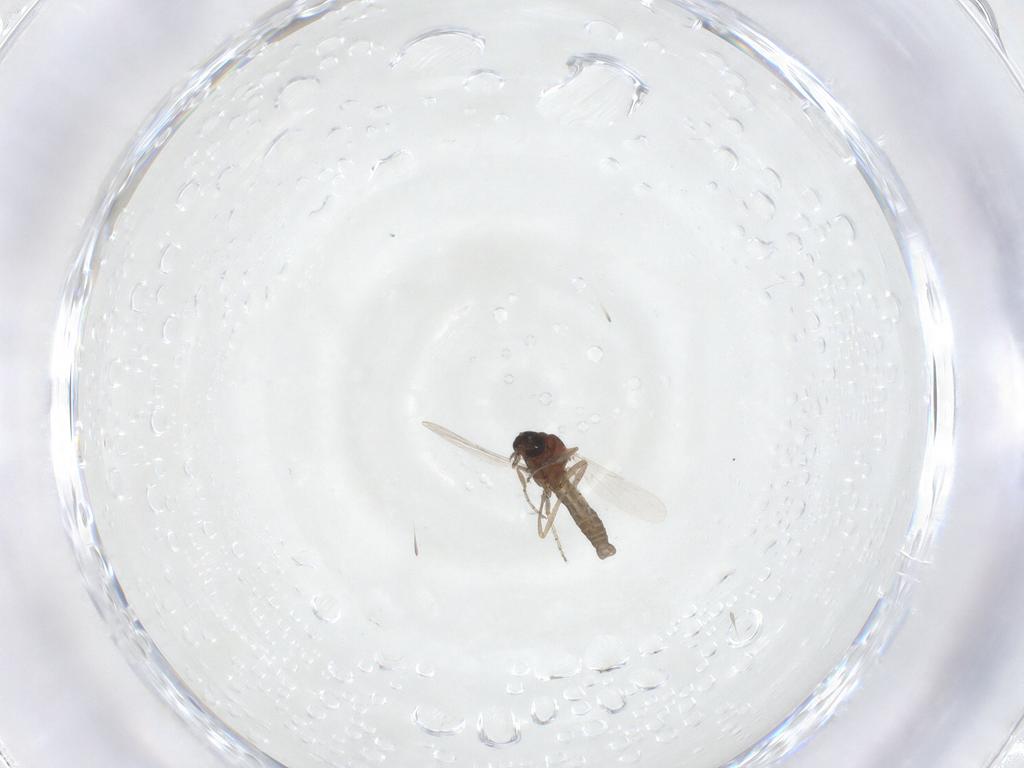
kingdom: Animalia
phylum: Arthropoda
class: Insecta
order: Diptera
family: Ceratopogonidae
